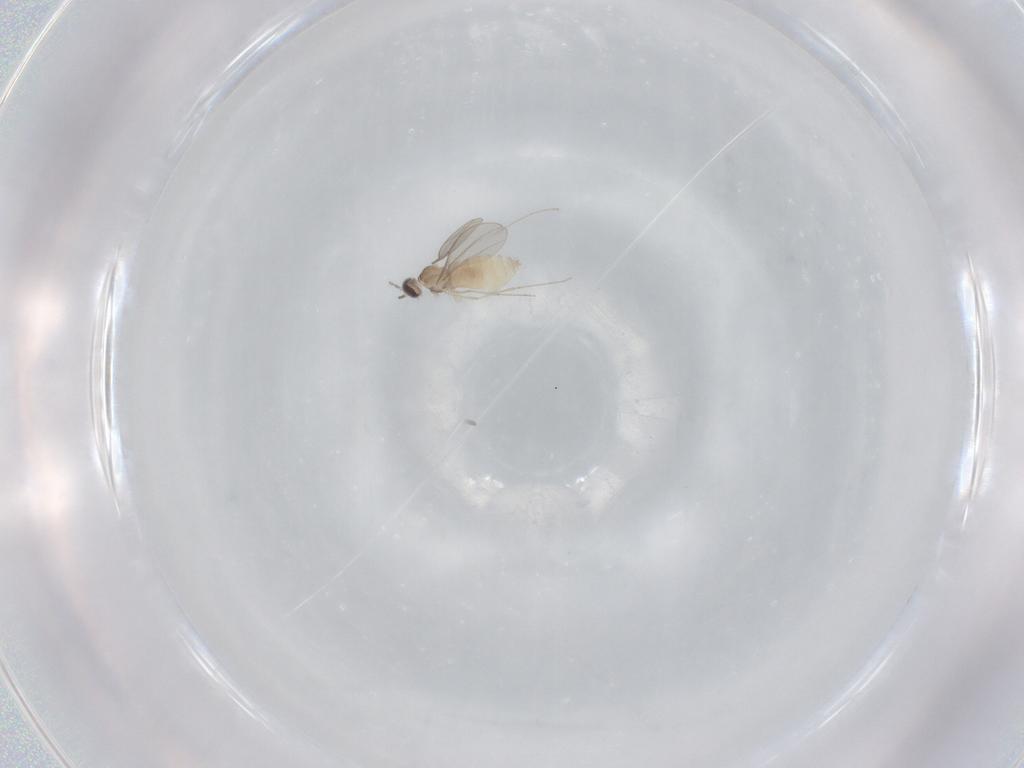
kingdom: Animalia
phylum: Arthropoda
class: Insecta
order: Diptera
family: Cecidomyiidae
